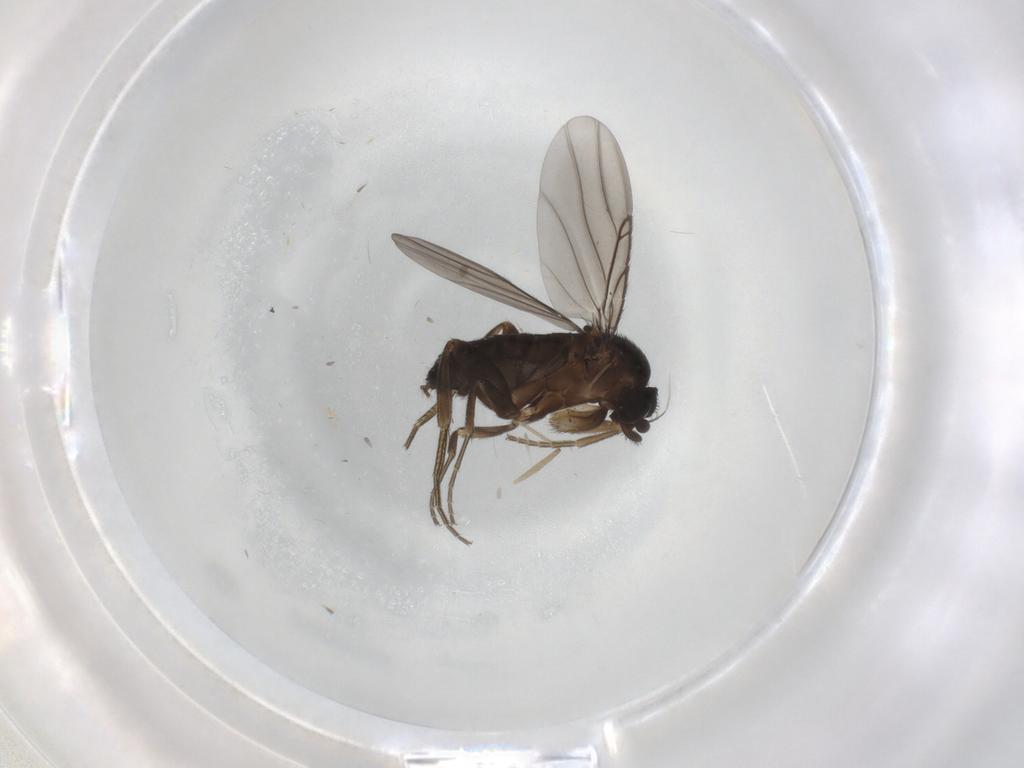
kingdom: Animalia
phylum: Arthropoda
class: Insecta
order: Diptera
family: Phoridae
